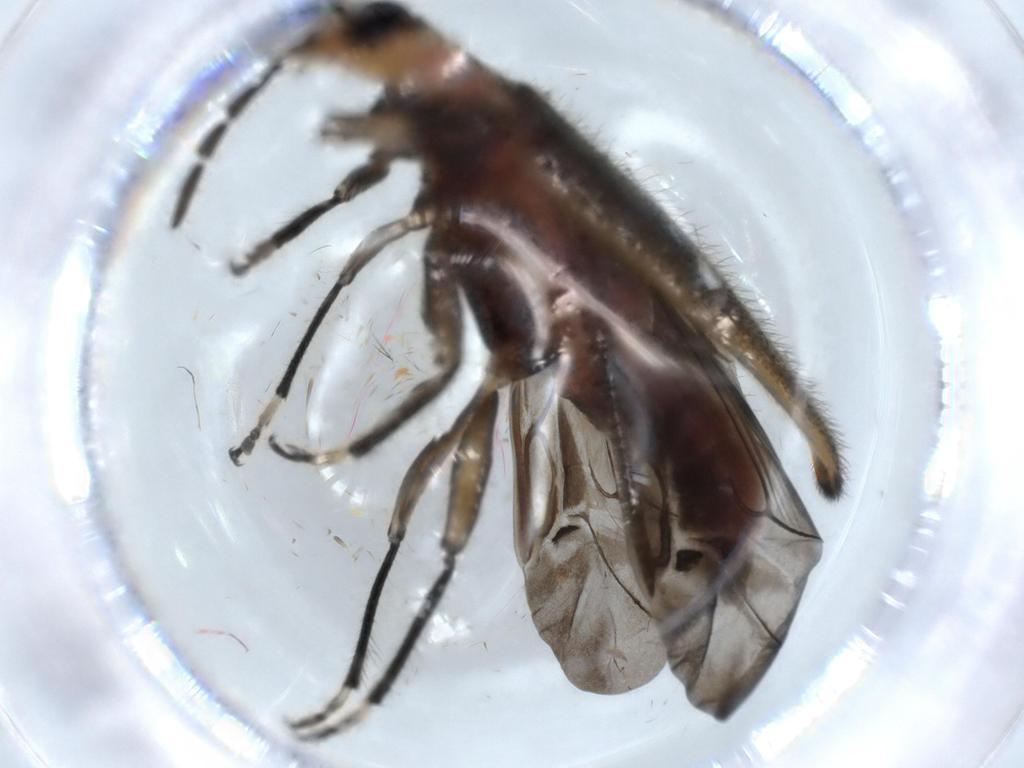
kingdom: Animalia
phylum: Arthropoda
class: Insecta
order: Coleoptera
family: Cleridae
